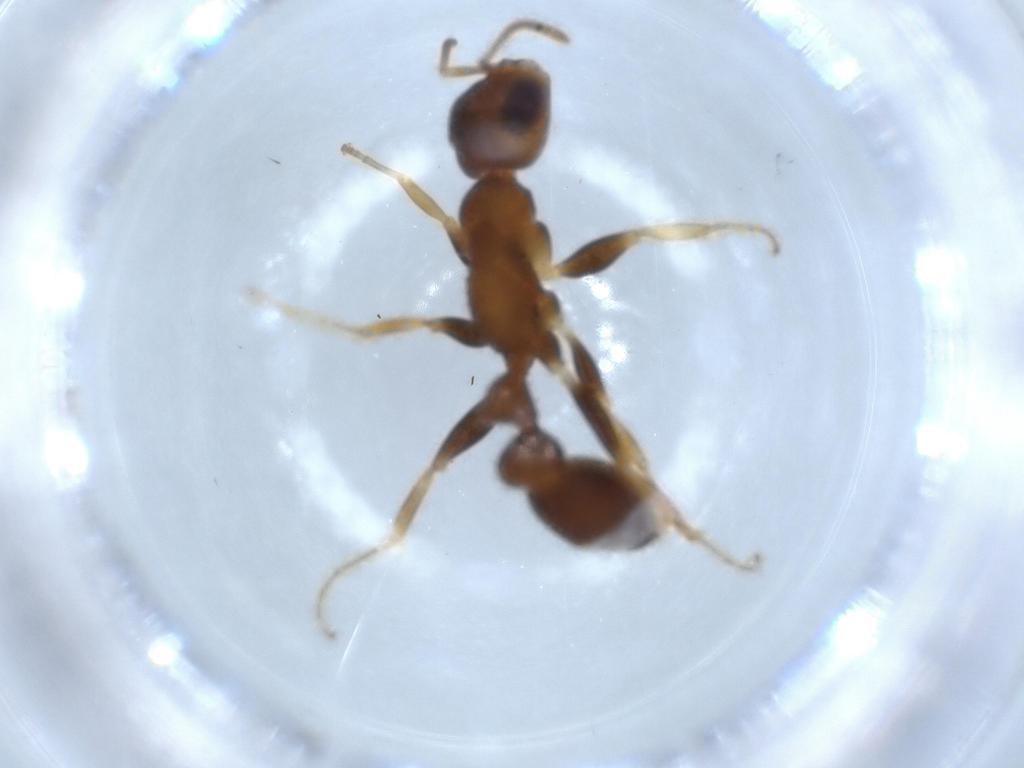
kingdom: Animalia
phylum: Arthropoda
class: Insecta
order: Hymenoptera
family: Formicidae
